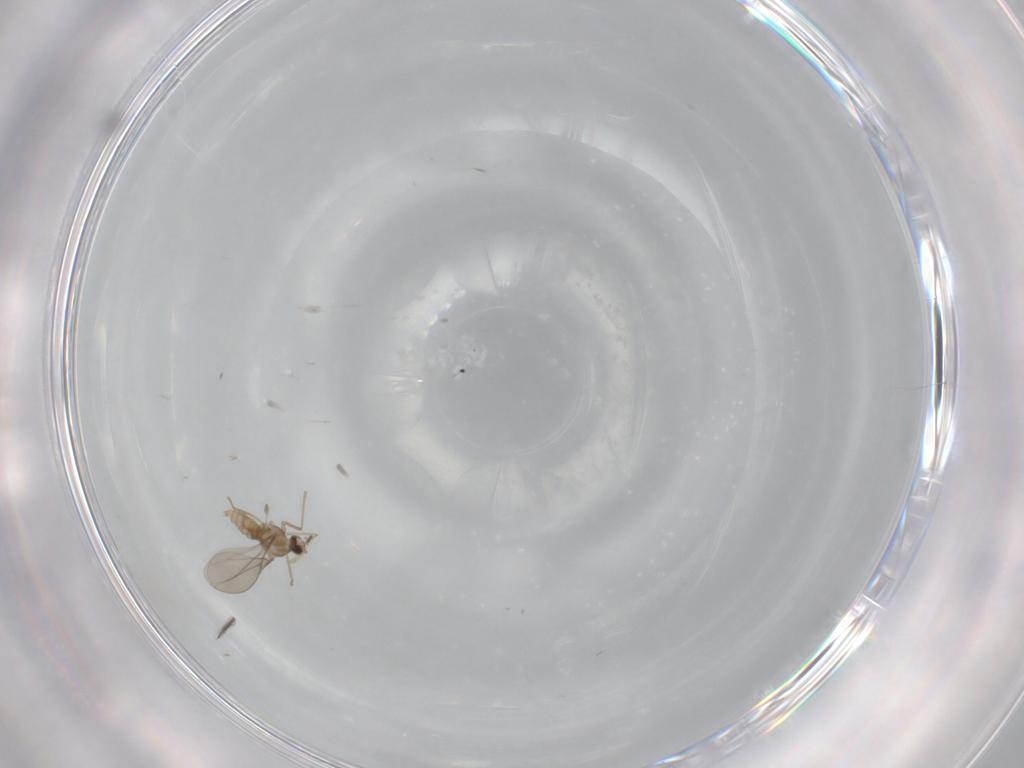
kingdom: Animalia
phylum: Arthropoda
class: Insecta
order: Diptera
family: Cecidomyiidae
